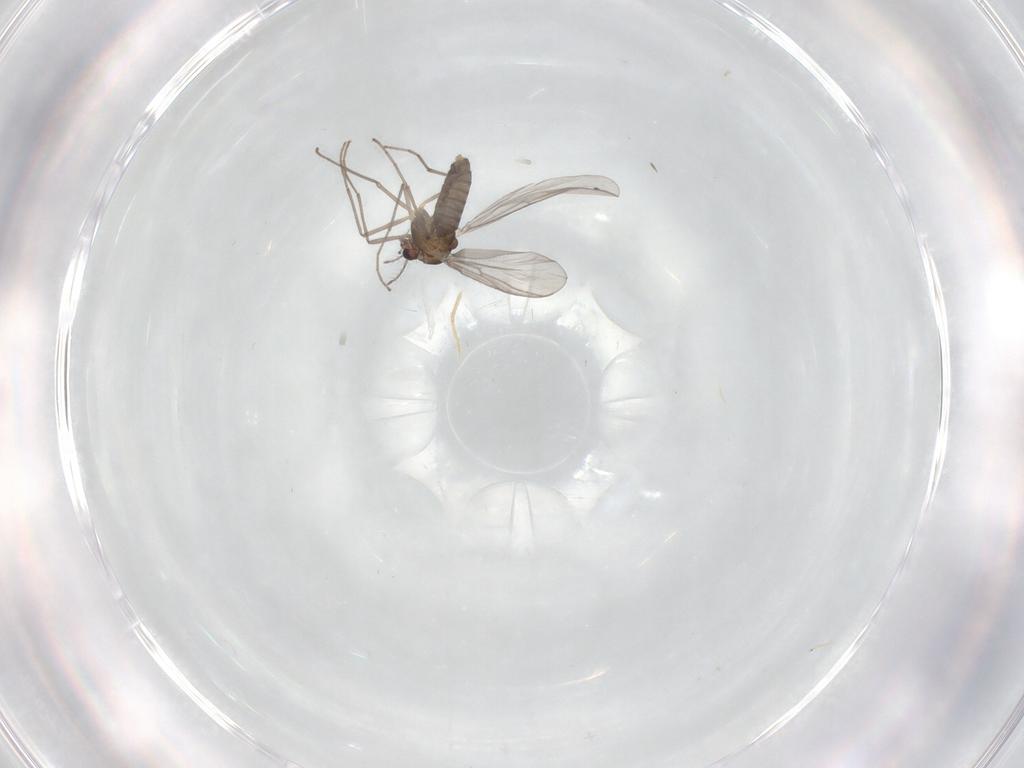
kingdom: Animalia
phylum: Arthropoda
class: Insecta
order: Diptera
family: Chironomidae
